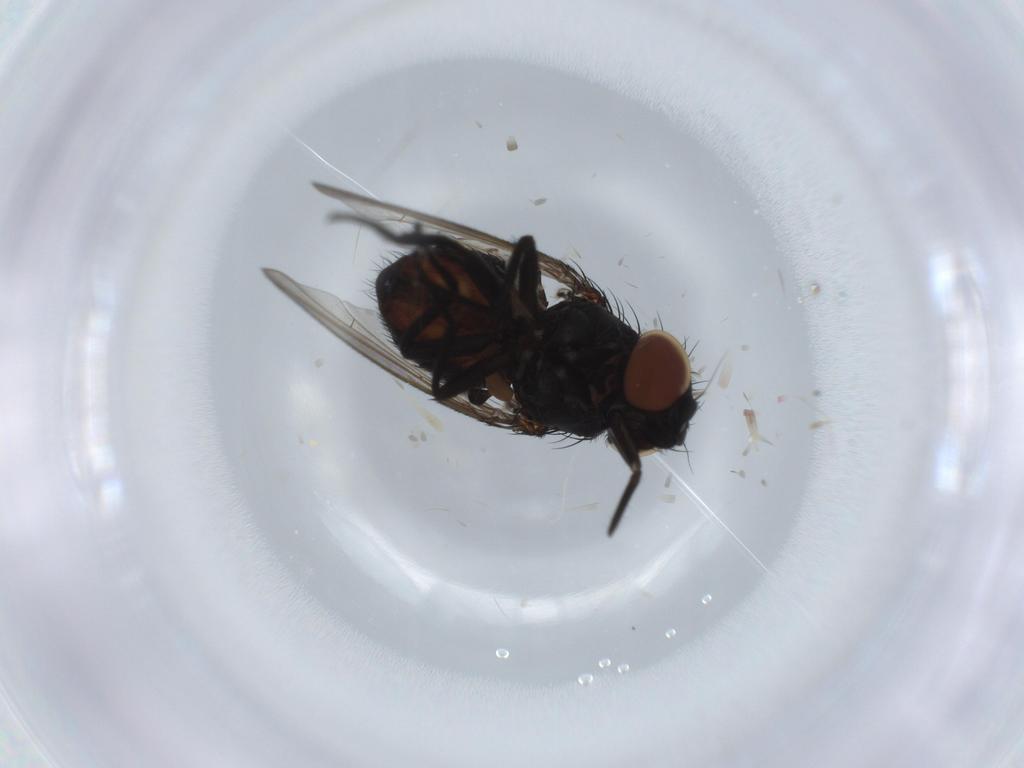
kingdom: Animalia
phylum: Arthropoda
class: Insecta
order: Diptera
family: Milichiidae
